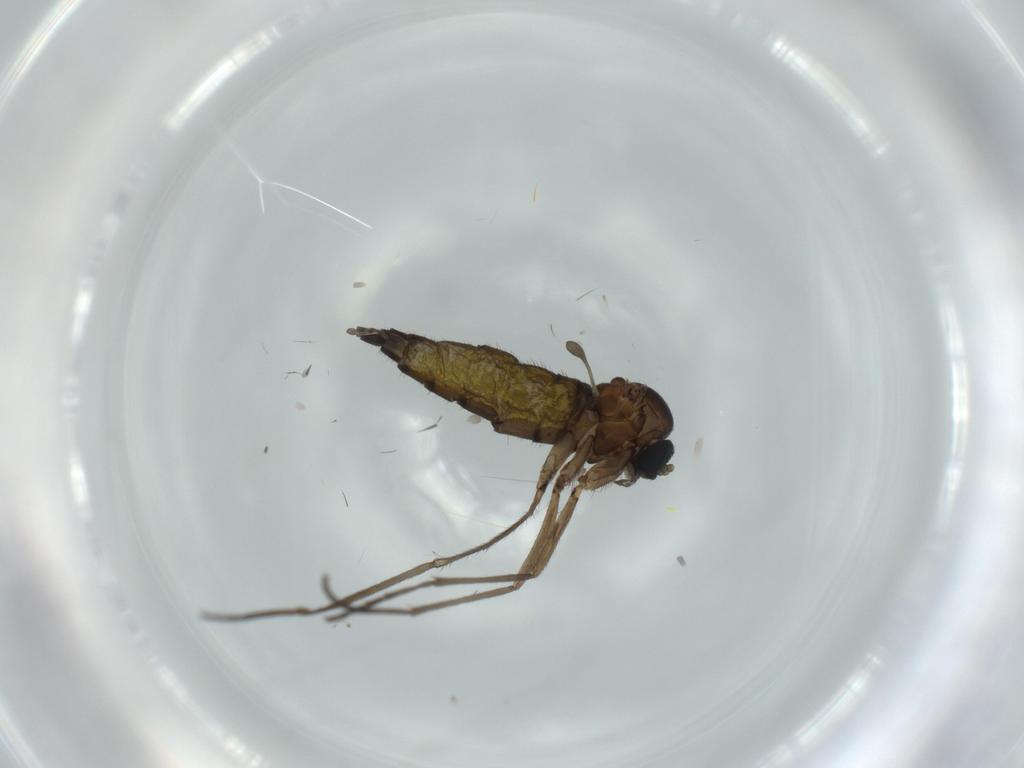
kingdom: Animalia
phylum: Arthropoda
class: Insecta
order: Diptera
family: Sciaridae
